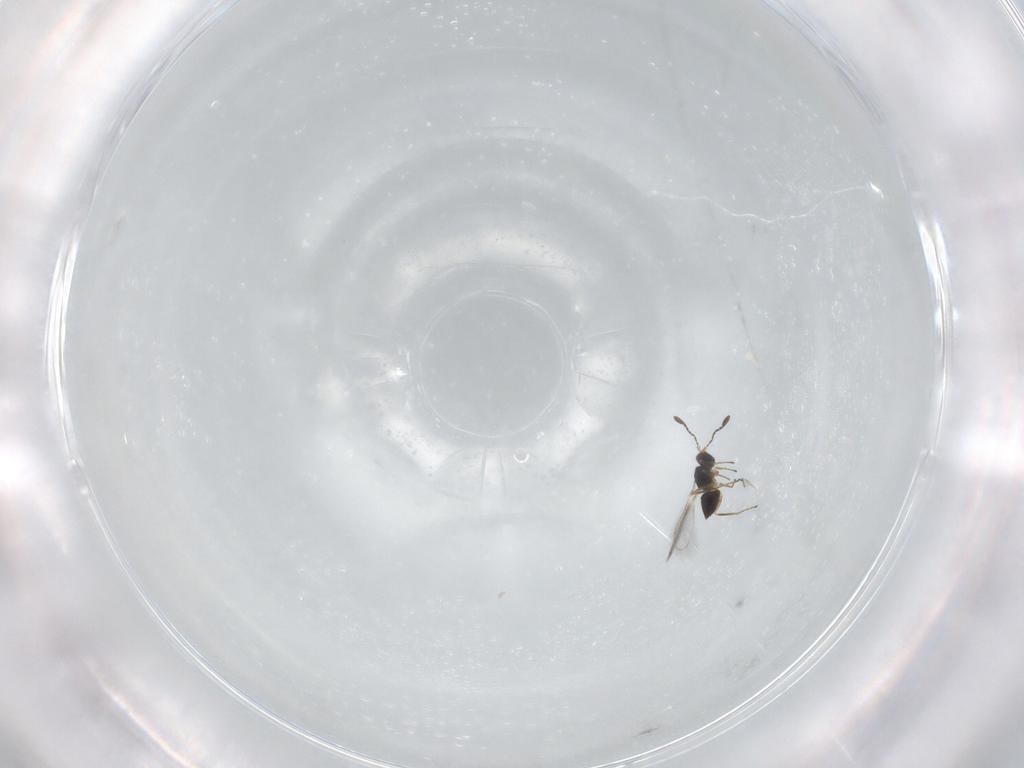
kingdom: Animalia
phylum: Arthropoda
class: Insecta
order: Hymenoptera
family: Mymaridae
